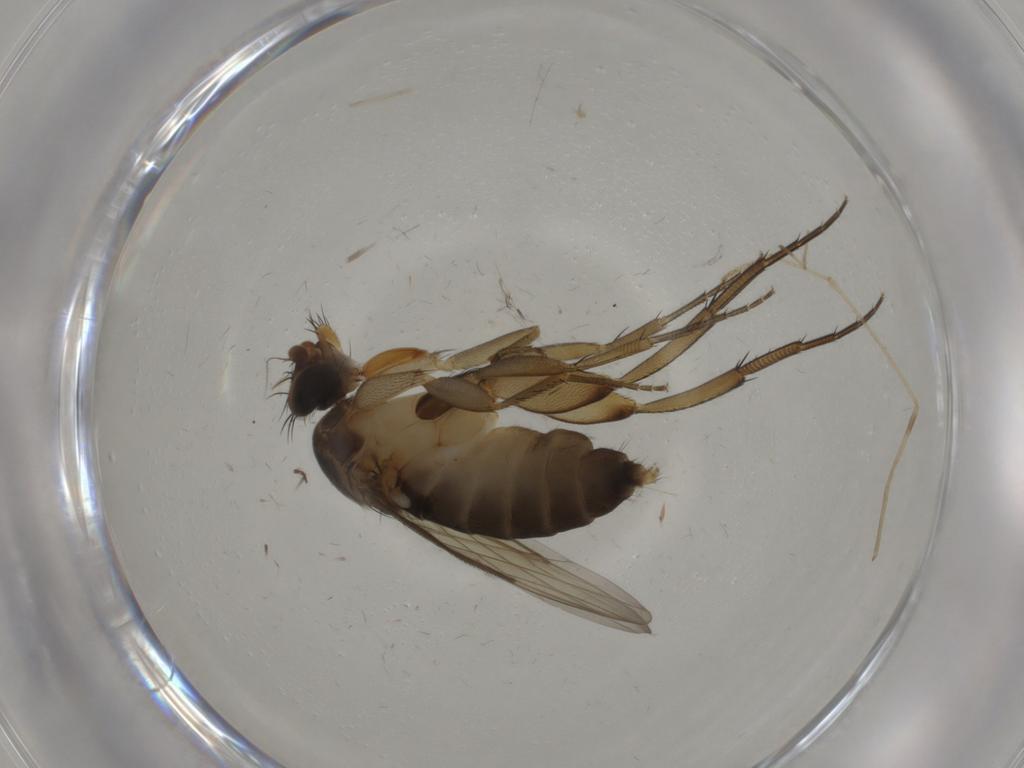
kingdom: Animalia
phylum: Arthropoda
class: Insecta
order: Diptera
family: Chironomidae
